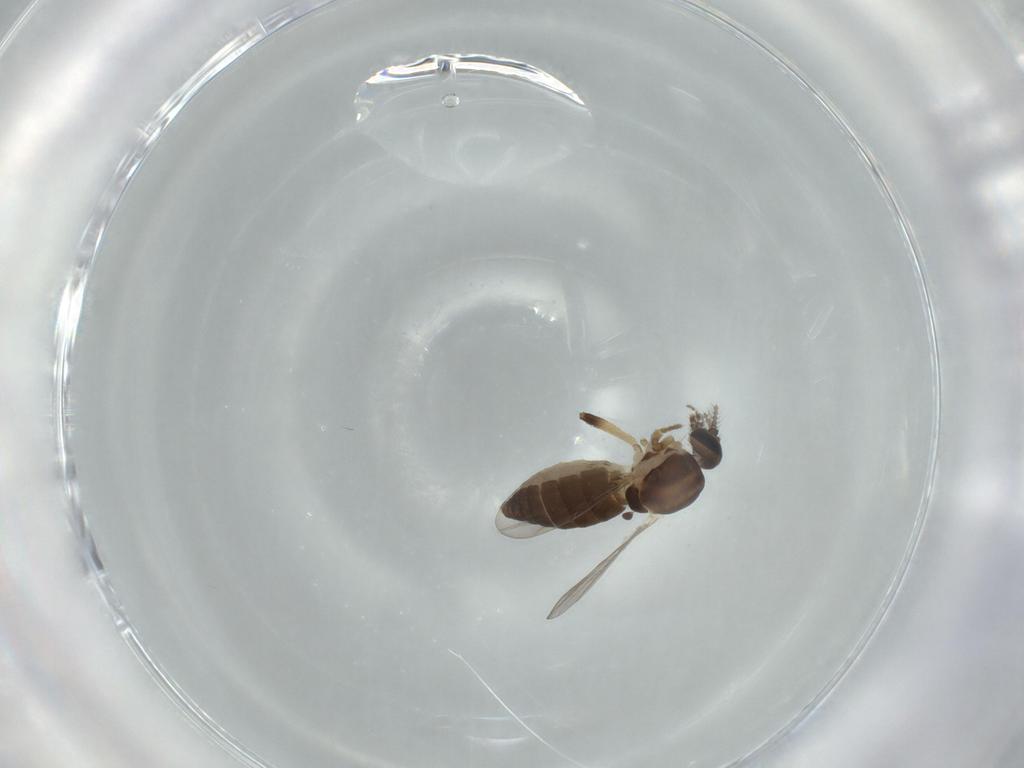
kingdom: Animalia
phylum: Arthropoda
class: Insecta
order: Diptera
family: Ceratopogonidae
